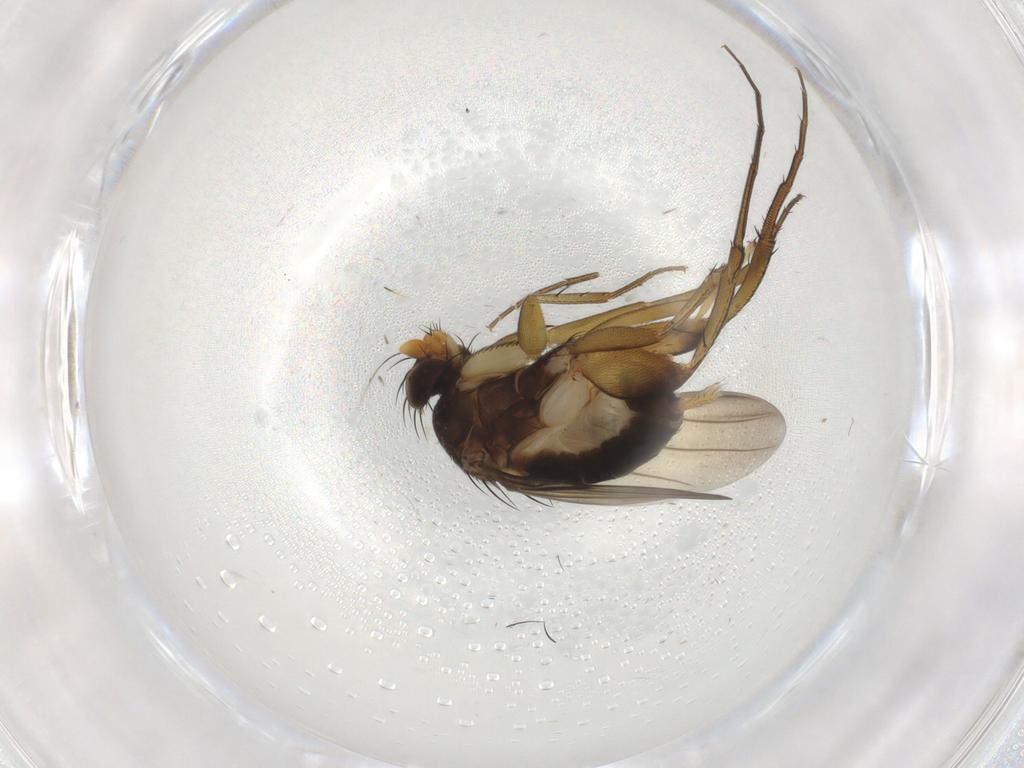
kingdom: Animalia
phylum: Arthropoda
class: Insecta
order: Diptera
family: Phoridae
